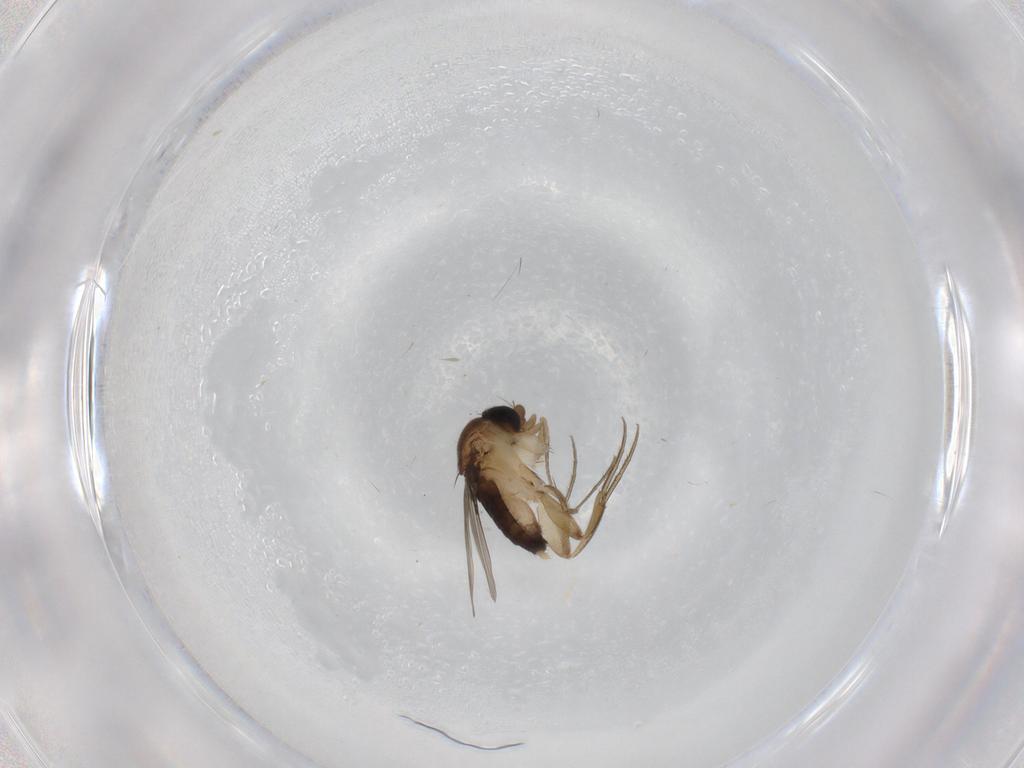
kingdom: Animalia
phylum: Arthropoda
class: Insecta
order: Diptera
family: Phoridae
